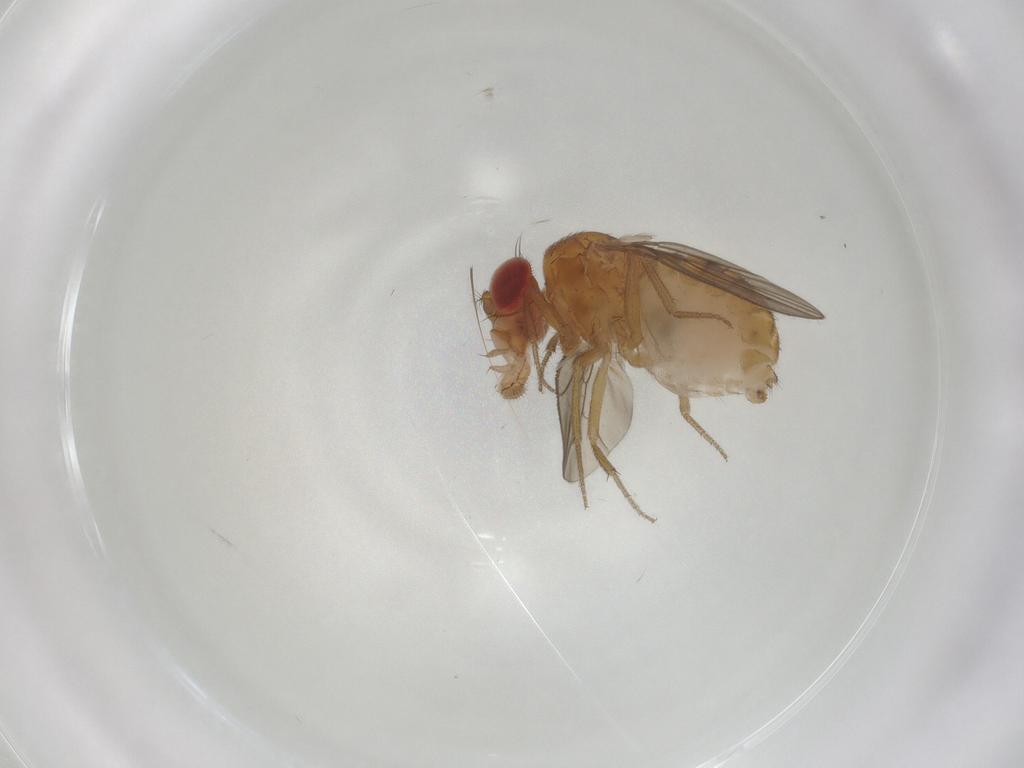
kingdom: Animalia
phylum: Arthropoda
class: Insecta
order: Diptera
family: Drosophilidae
